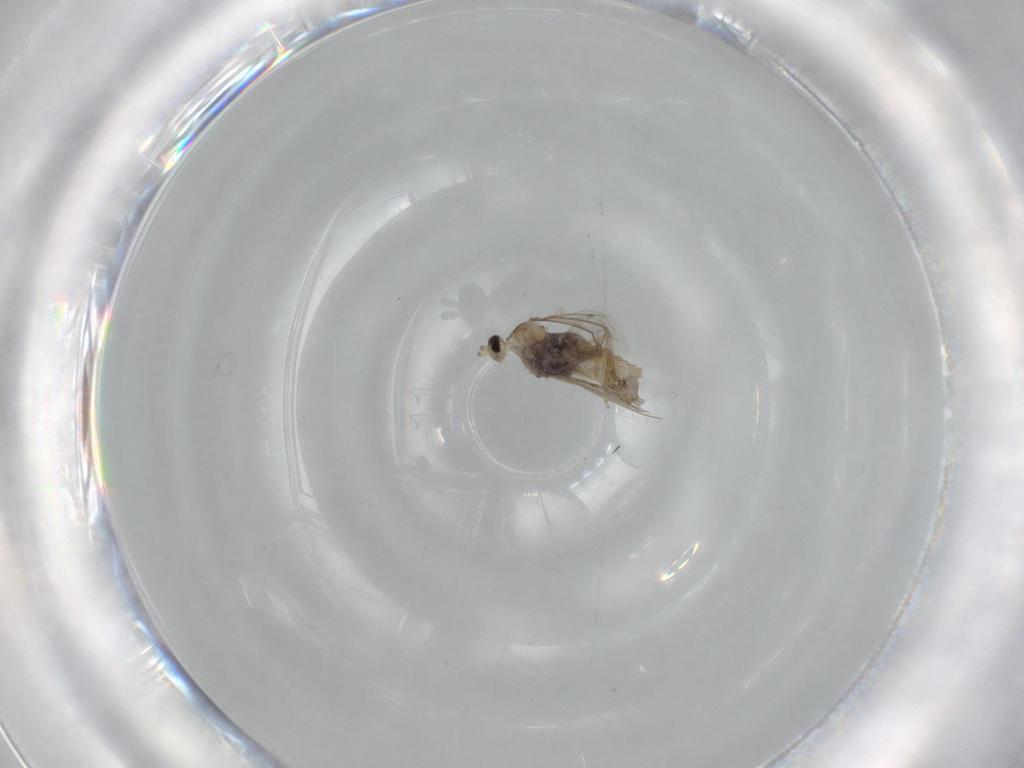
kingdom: Animalia
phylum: Arthropoda
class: Insecta
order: Diptera
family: Cecidomyiidae
